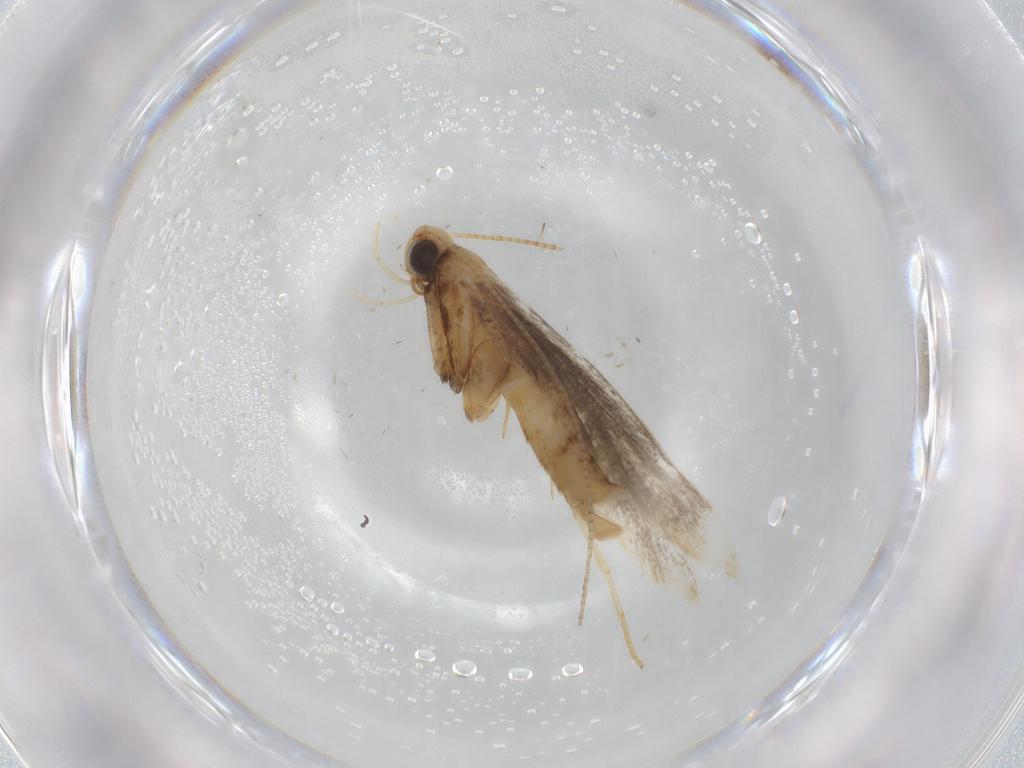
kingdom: Animalia
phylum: Arthropoda
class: Insecta
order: Lepidoptera
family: Gracillariidae
